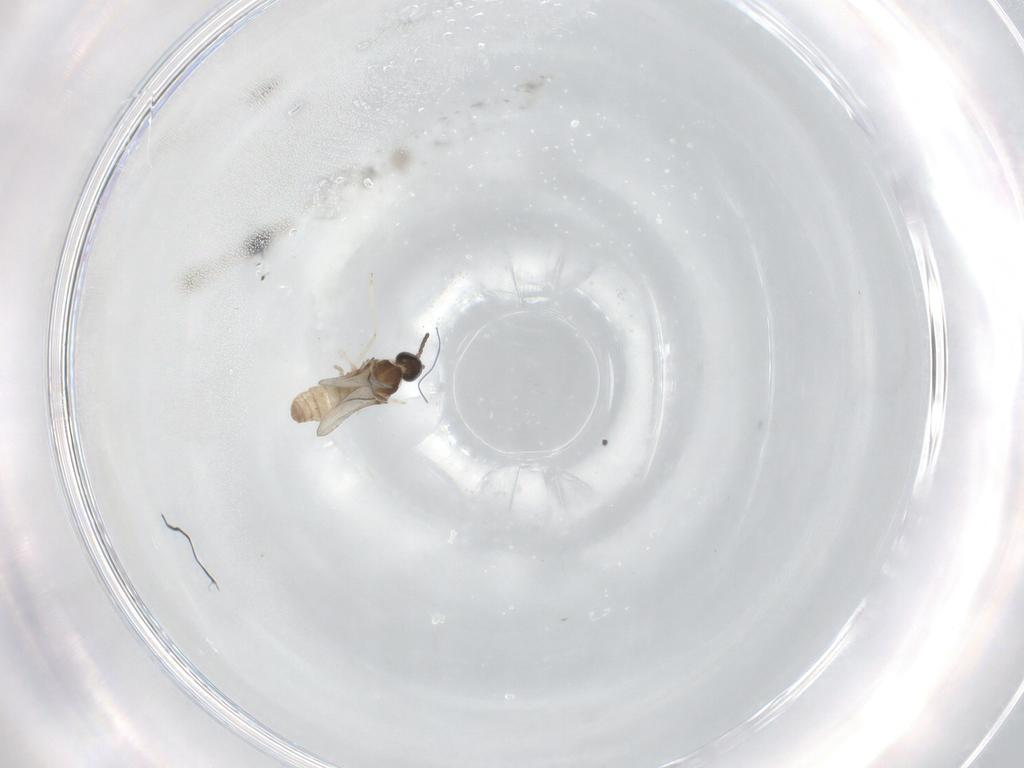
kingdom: Animalia
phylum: Arthropoda
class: Insecta
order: Diptera
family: Cecidomyiidae
